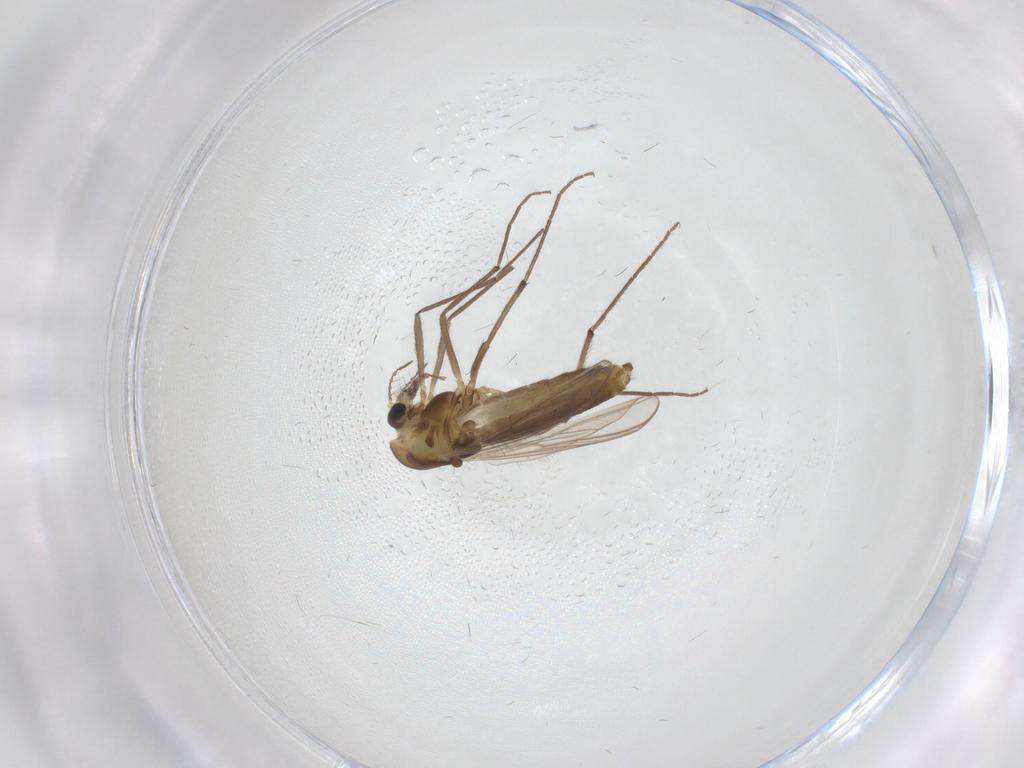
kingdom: Animalia
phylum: Arthropoda
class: Insecta
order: Diptera
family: Chironomidae
